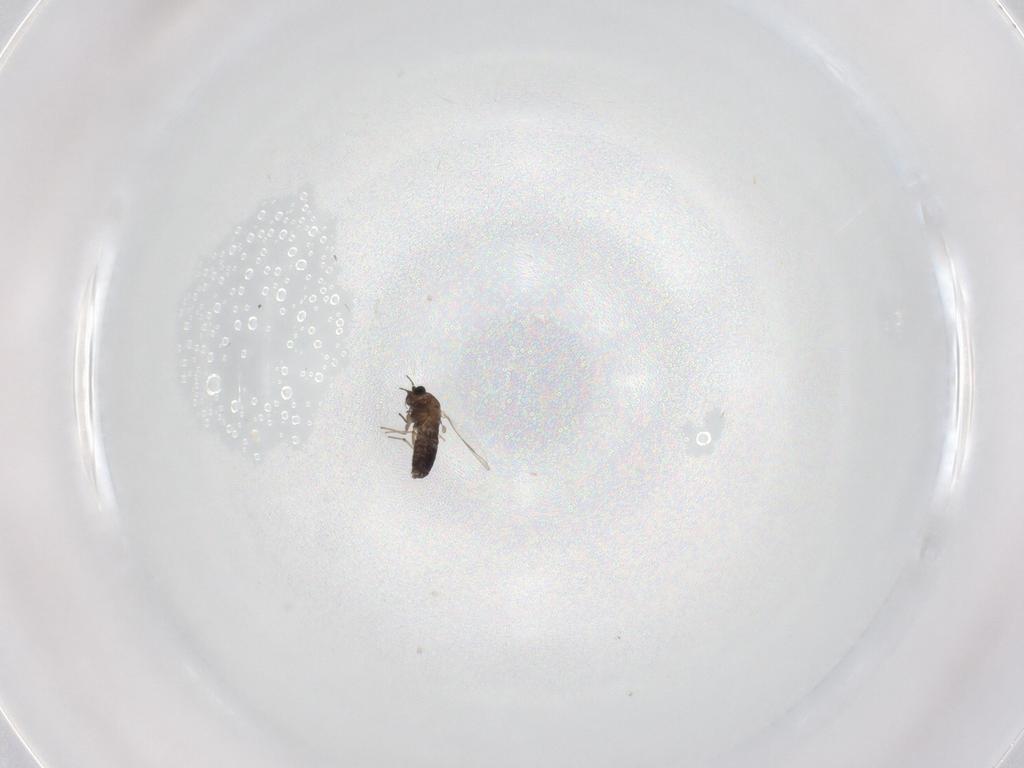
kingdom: Animalia
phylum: Arthropoda
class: Insecta
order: Diptera
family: Chironomidae
